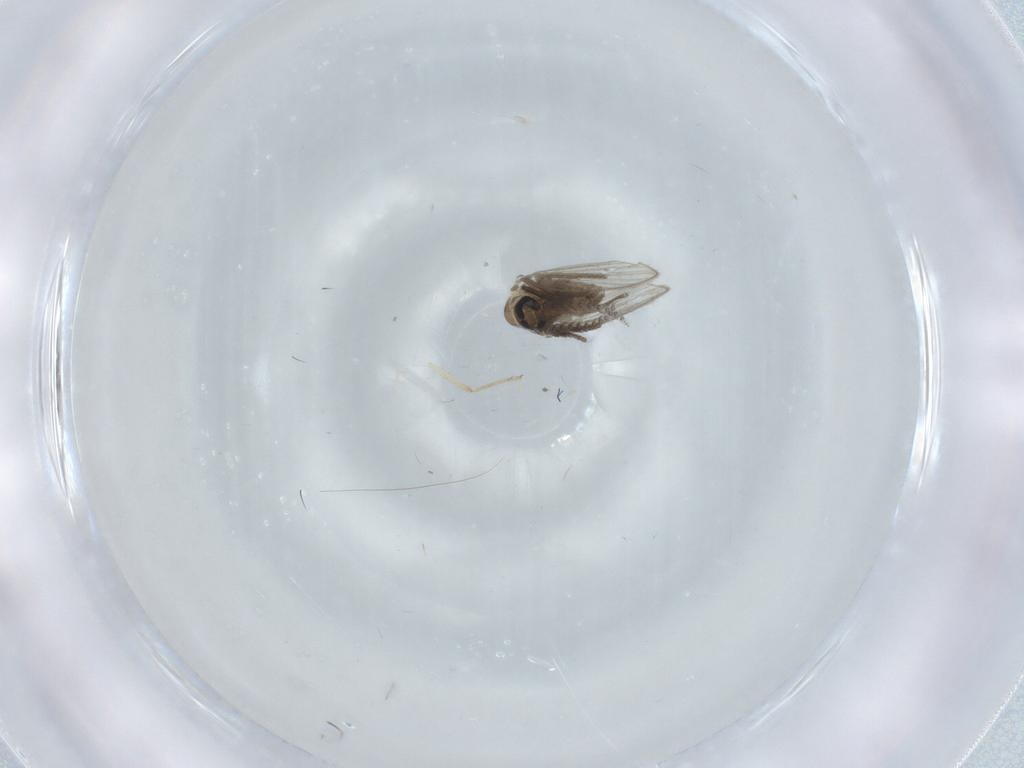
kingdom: Animalia
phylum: Arthropoda
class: Insecta
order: Diptera
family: Psychodidae
